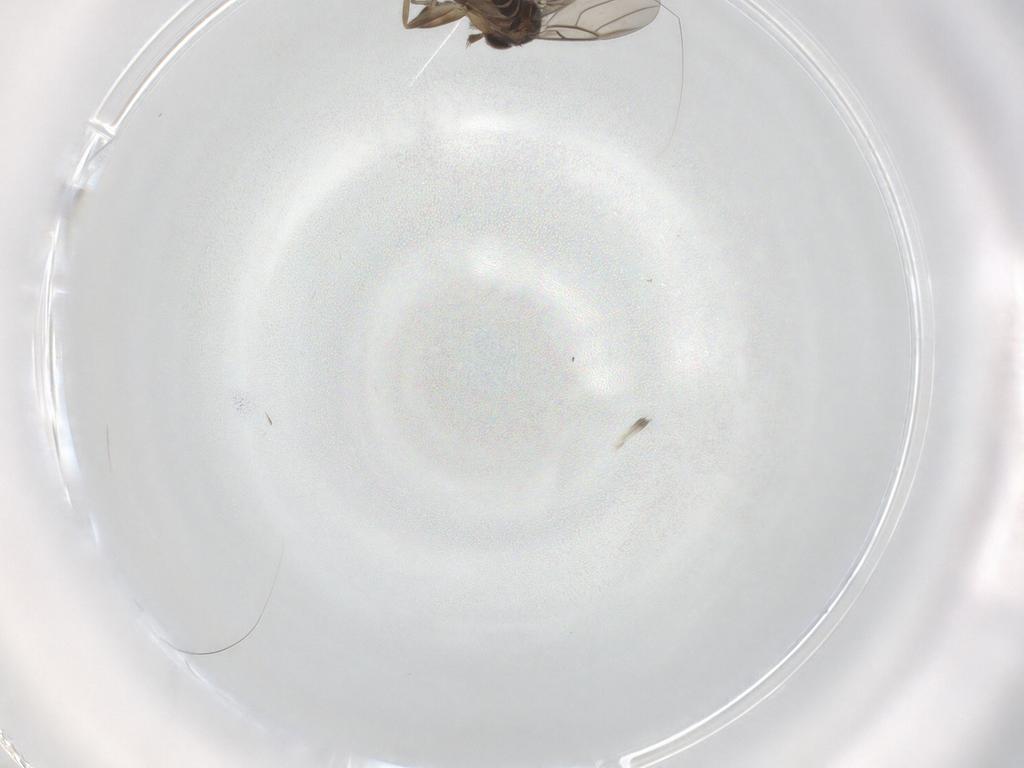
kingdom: Animalia
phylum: Arthropoda
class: Insecta
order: Diptera
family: Phoridae
